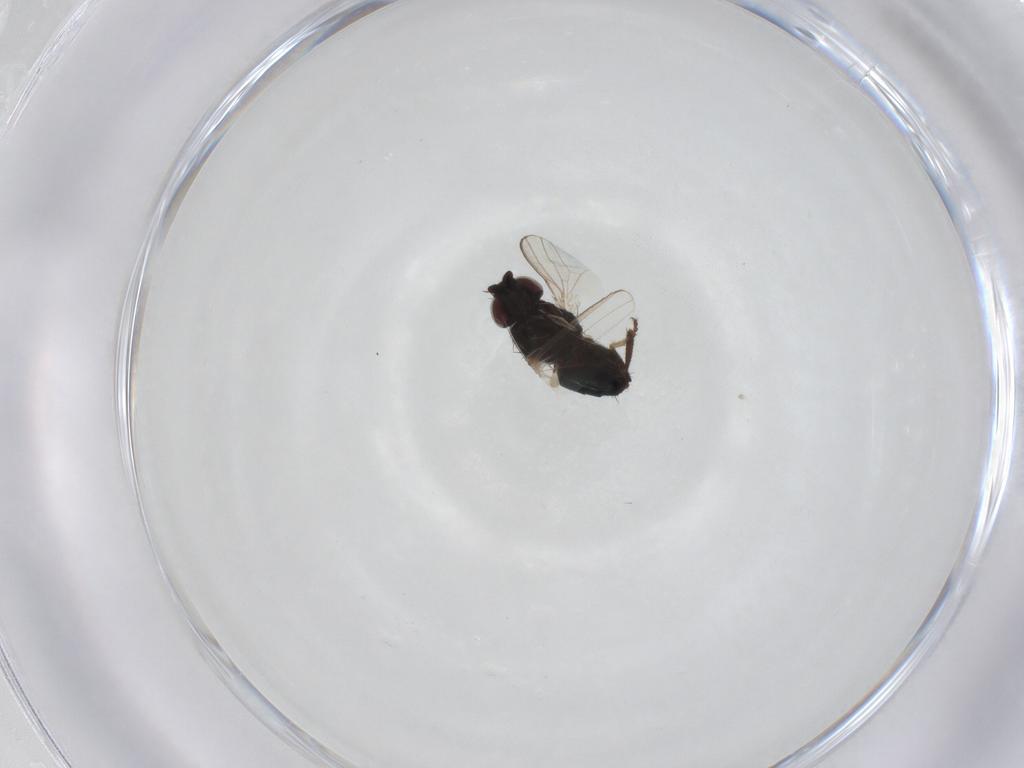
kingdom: Animalia
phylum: Arthropoda
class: Insecta
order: Diptera
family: Milichiidae
